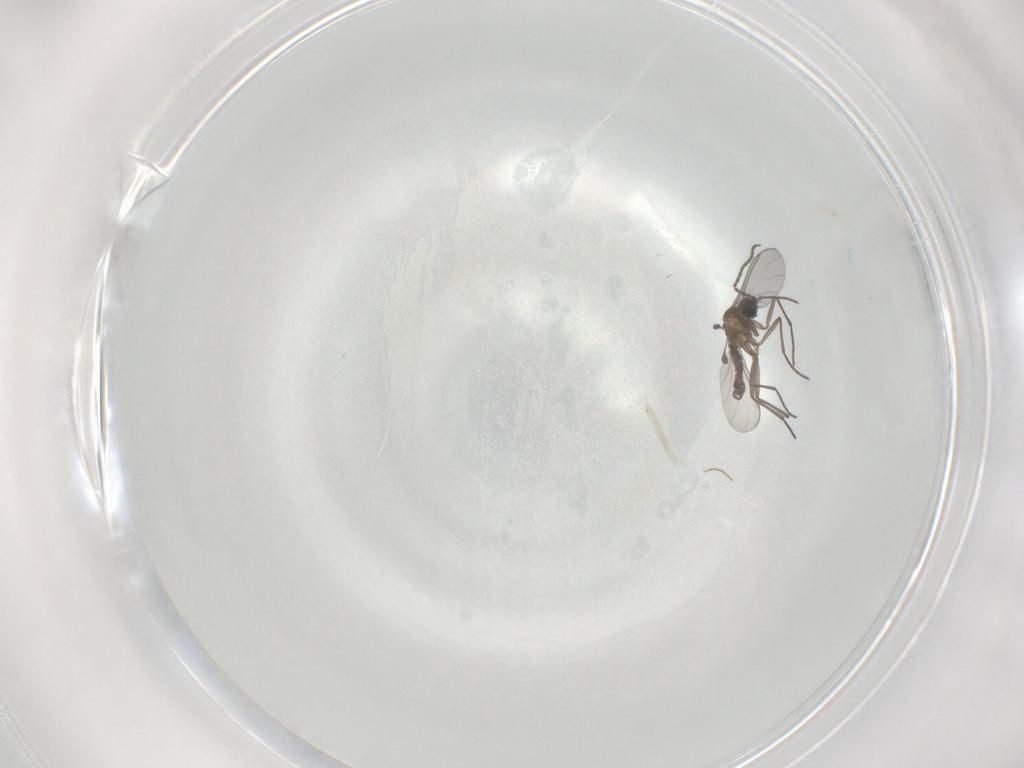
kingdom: Animalia
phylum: Arthropoda
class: Insecta
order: Diptera
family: Sciaridae
